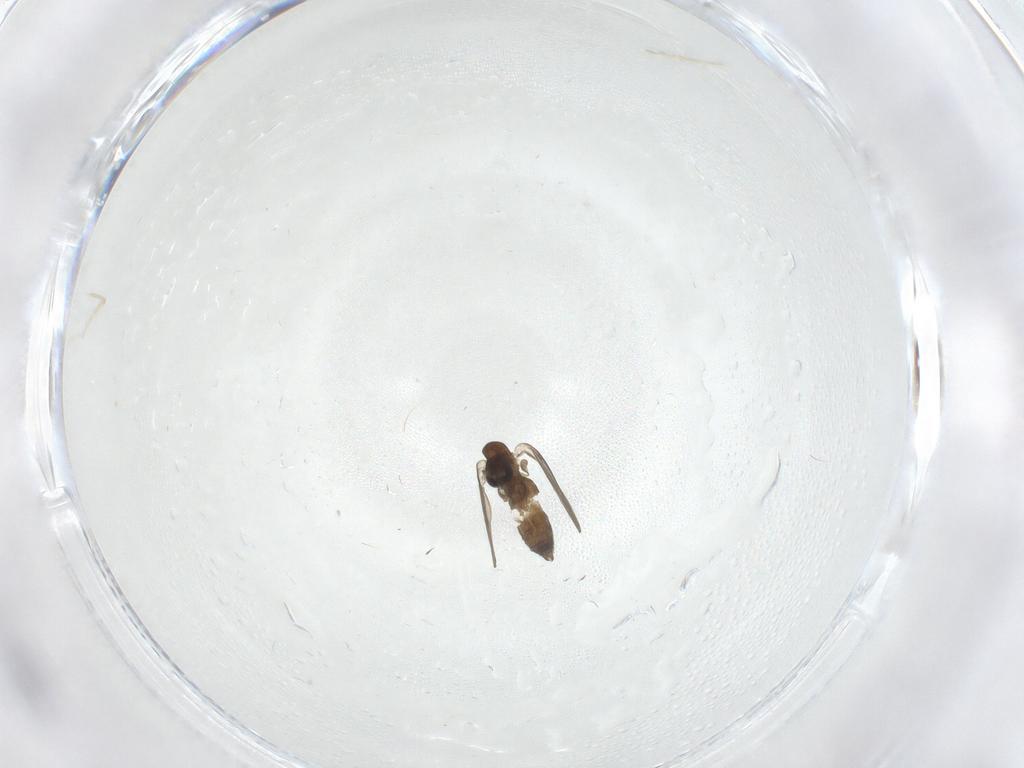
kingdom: Animalia
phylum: Arthropoda
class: Insecta
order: Diptera
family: Psychodidae
